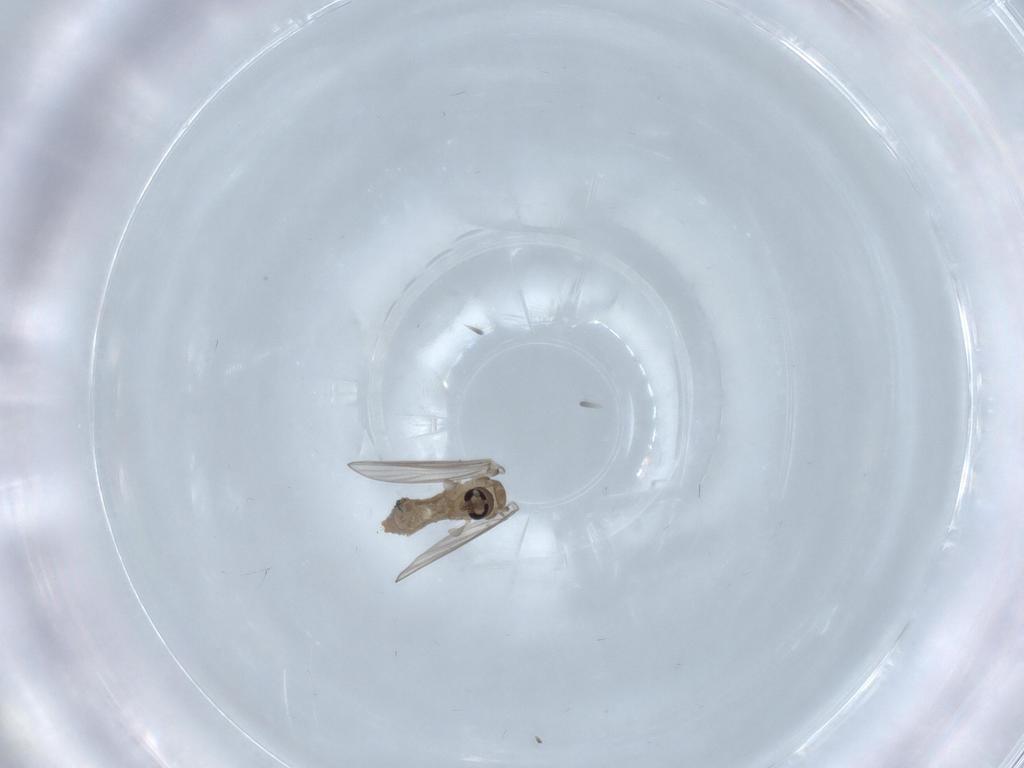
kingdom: Animalia
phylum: Arthropoda
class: Insecta
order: Diptera
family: Psychodidae
